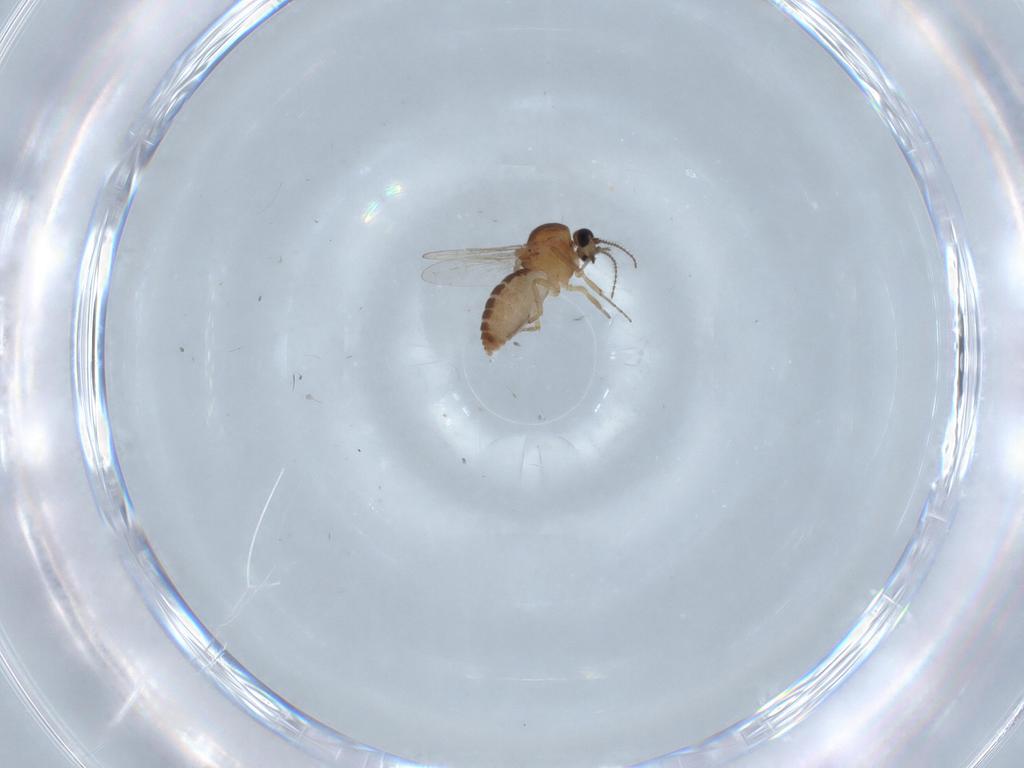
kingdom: Animalia
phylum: Arthropoda
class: Insecta
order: Diptera
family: Ceratopogonidae
